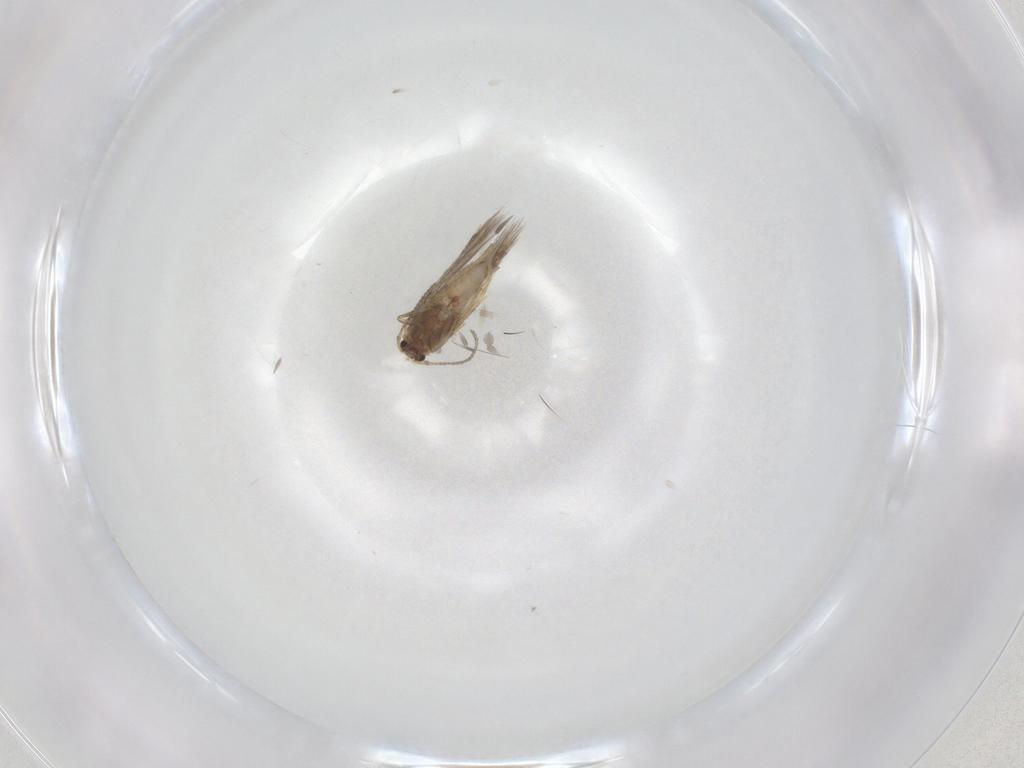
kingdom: Animalia
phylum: Arthropoda
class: Insecta
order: Lepidoptera
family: Nepticulidae
